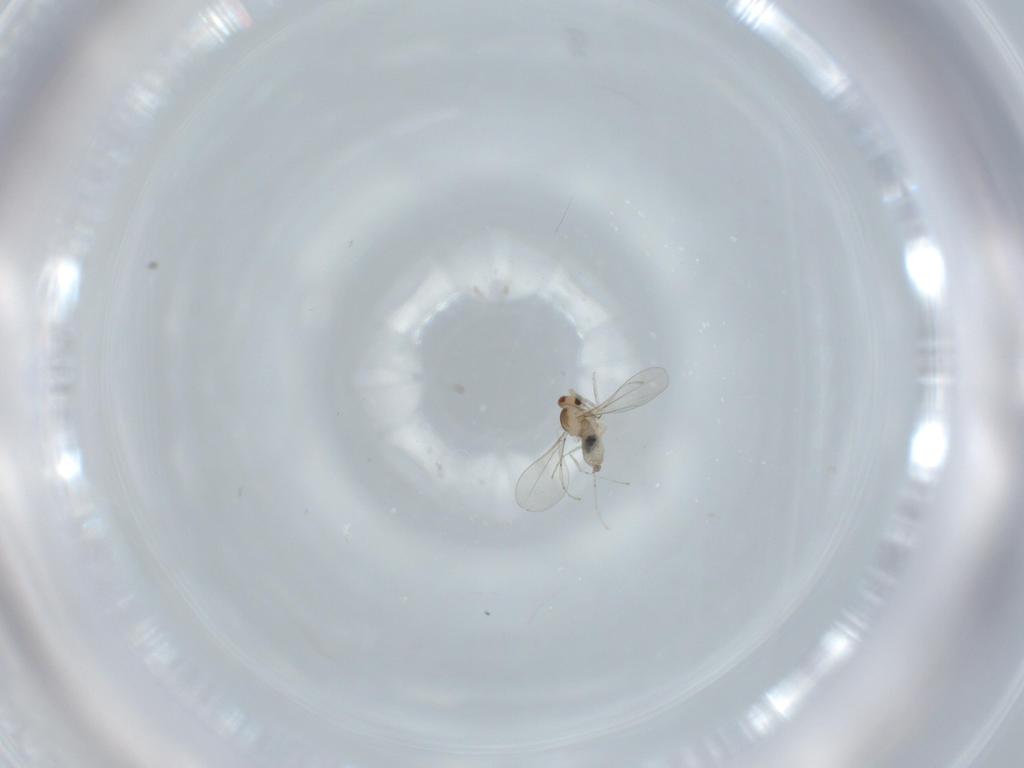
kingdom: Animalia
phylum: Arthropoda
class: Insecta
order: Diptera
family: Cecidomyiidae
